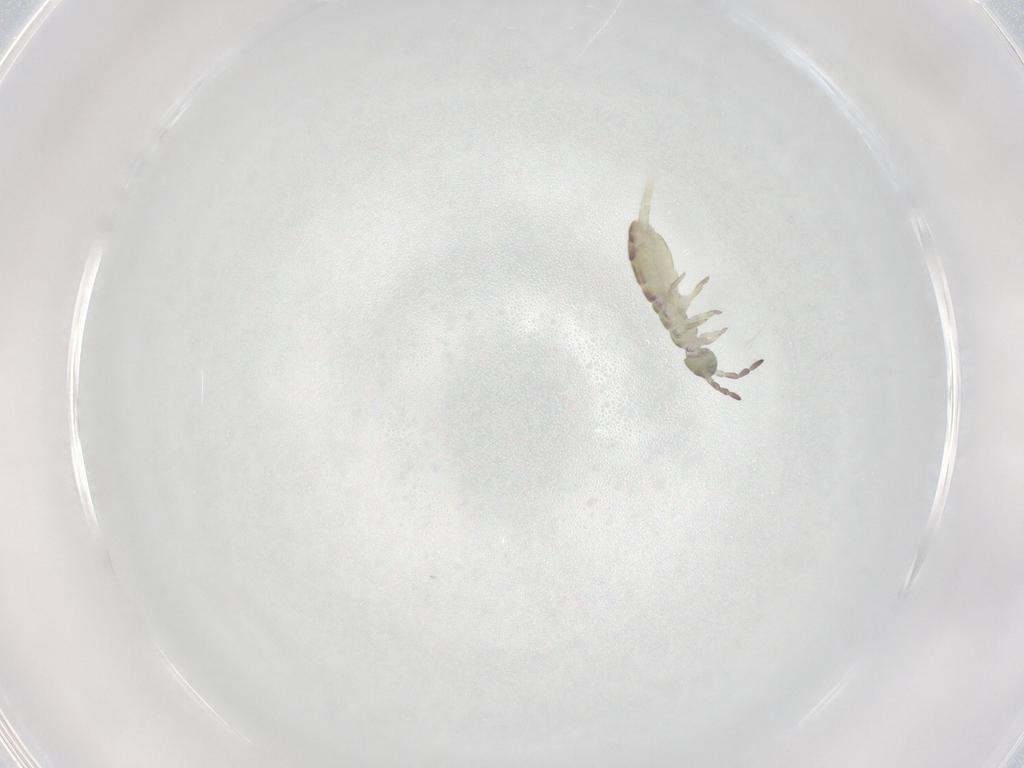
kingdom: Animalia
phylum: Arthropoda
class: Collembola
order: Entomobryomorpha
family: Isotomidae
